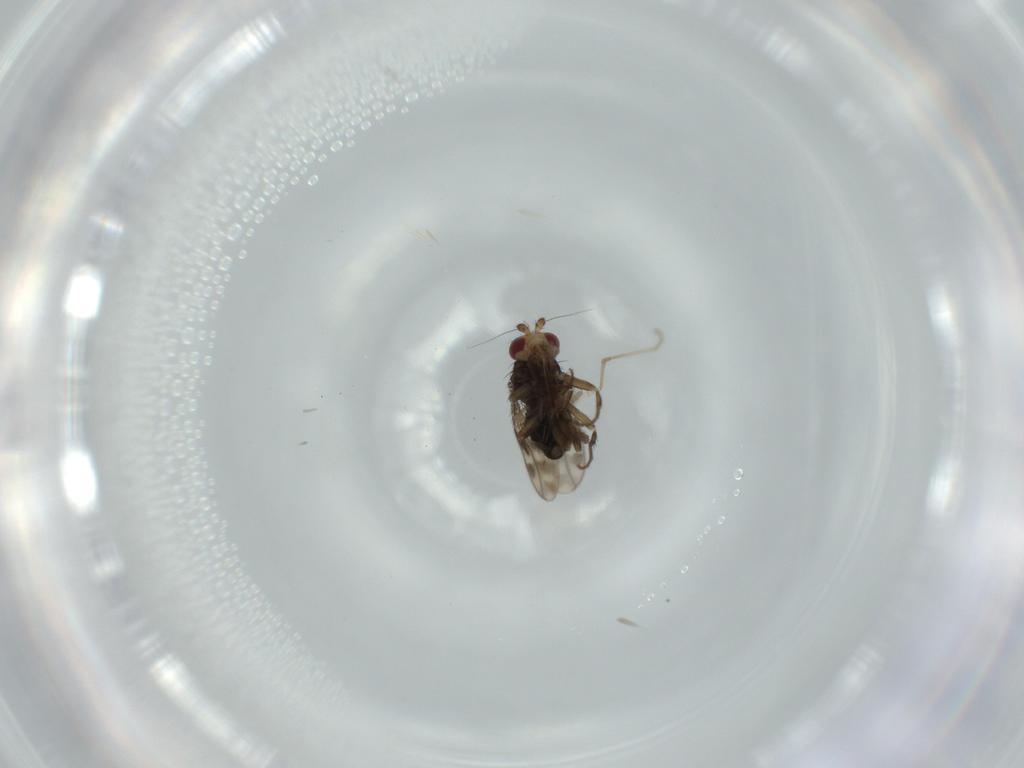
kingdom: Animalia
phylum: Arthropoda
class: Insecta
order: Diptera
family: Sphaeroceridae
